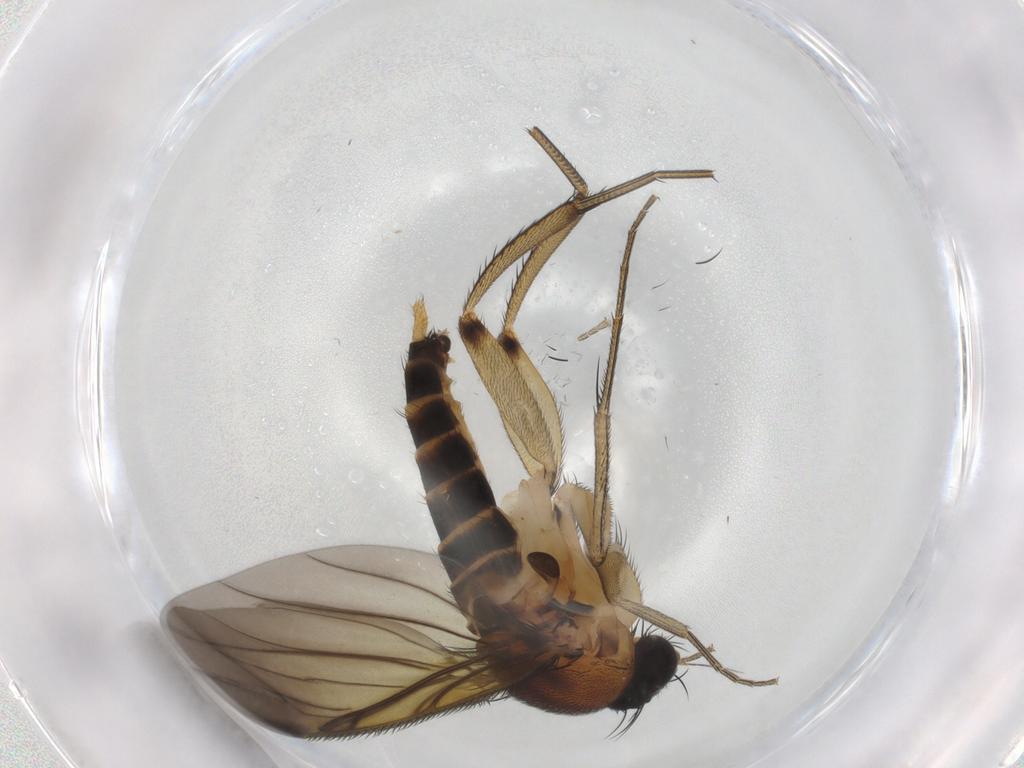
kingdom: Animalia
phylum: Arthropoda
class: Insecta
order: Diptera
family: Phoridae
